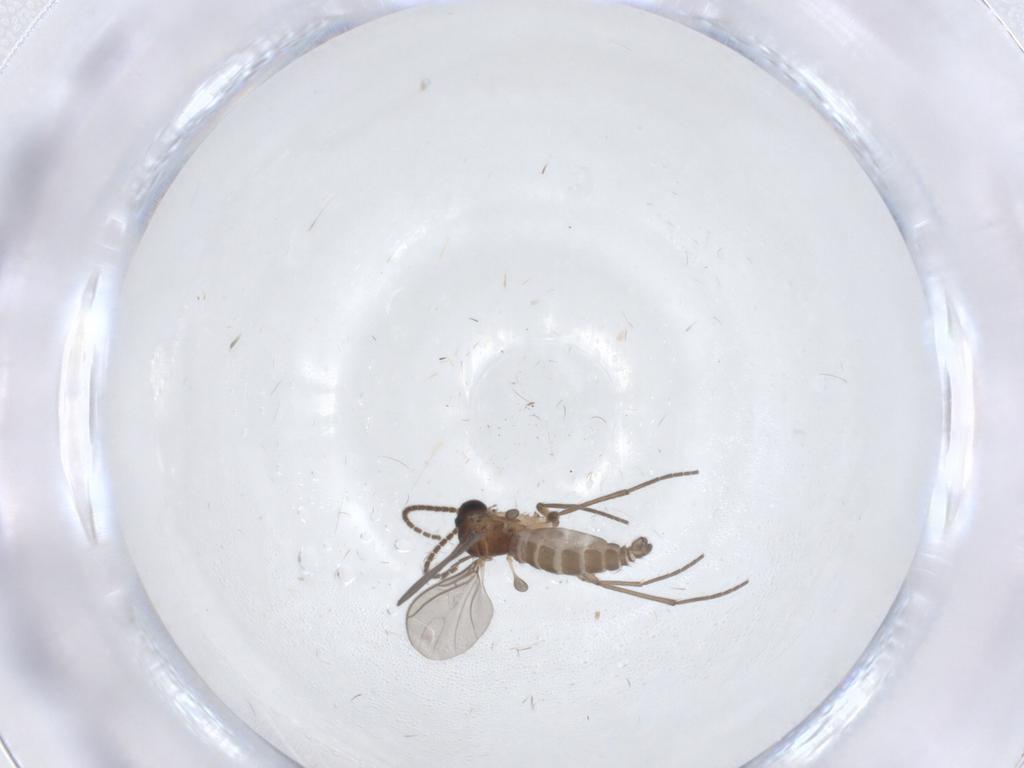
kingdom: Animalia
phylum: Arthropoda
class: Insecta
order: Diptera
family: Sciaridae
